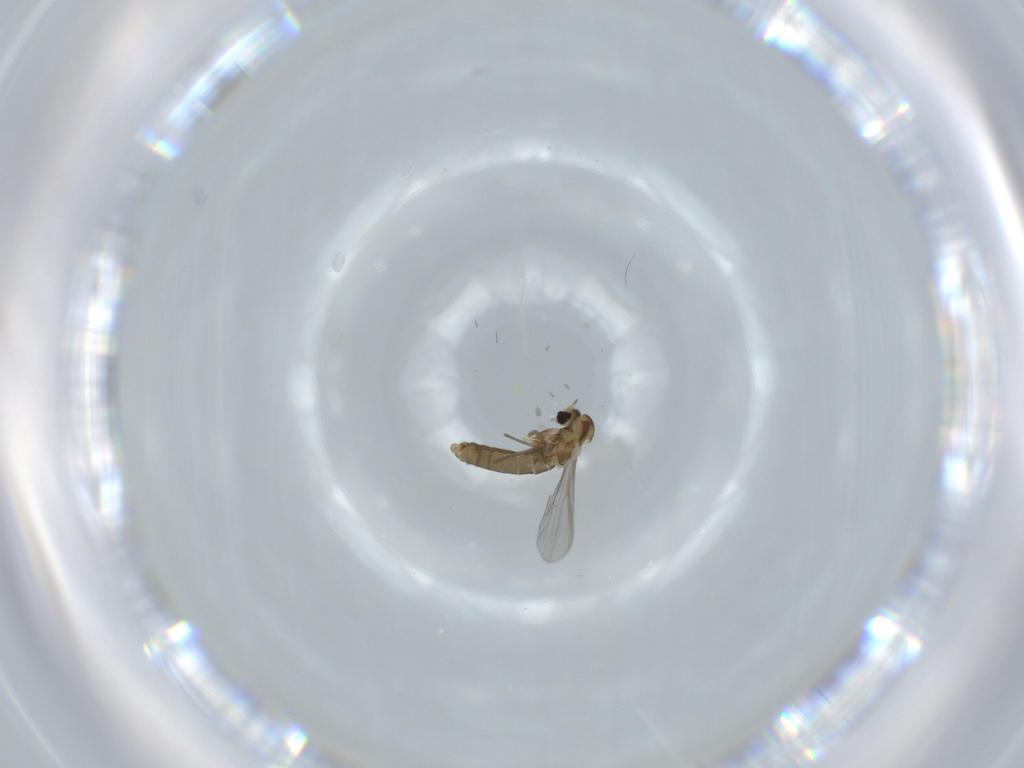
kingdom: Animalia
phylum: Arthropoda
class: Insecta
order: Diptera
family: Ceratopogonidae
